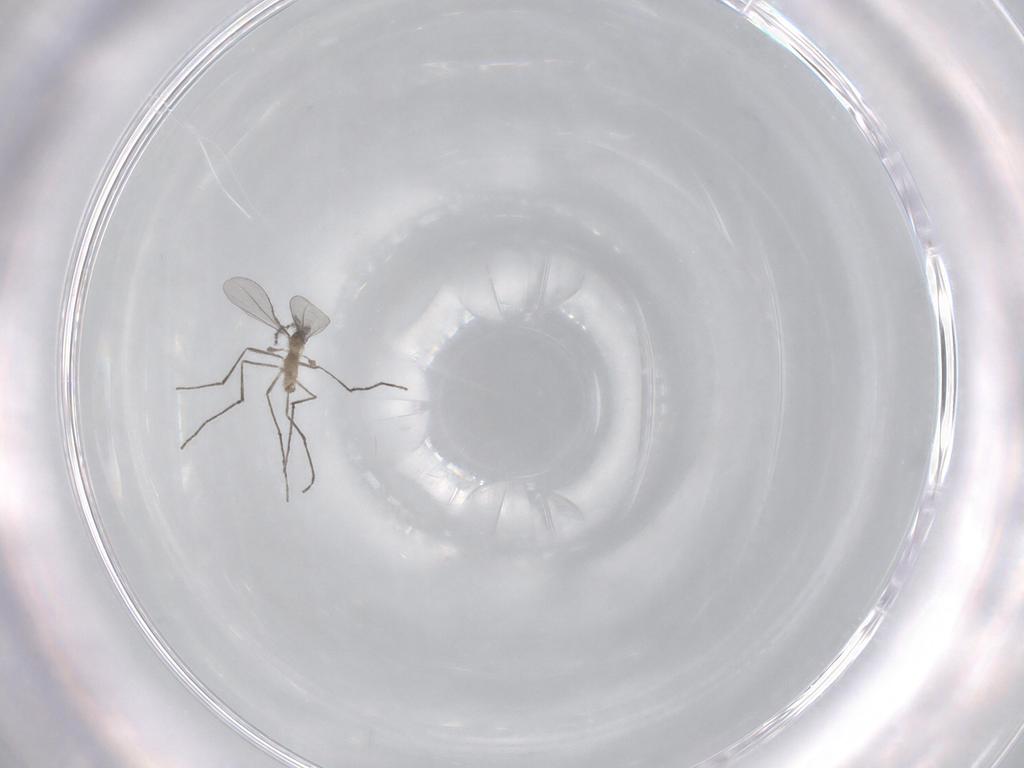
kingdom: Animalia
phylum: Arthropoda
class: Insecta
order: Diptera
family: Cecidomyiidae
